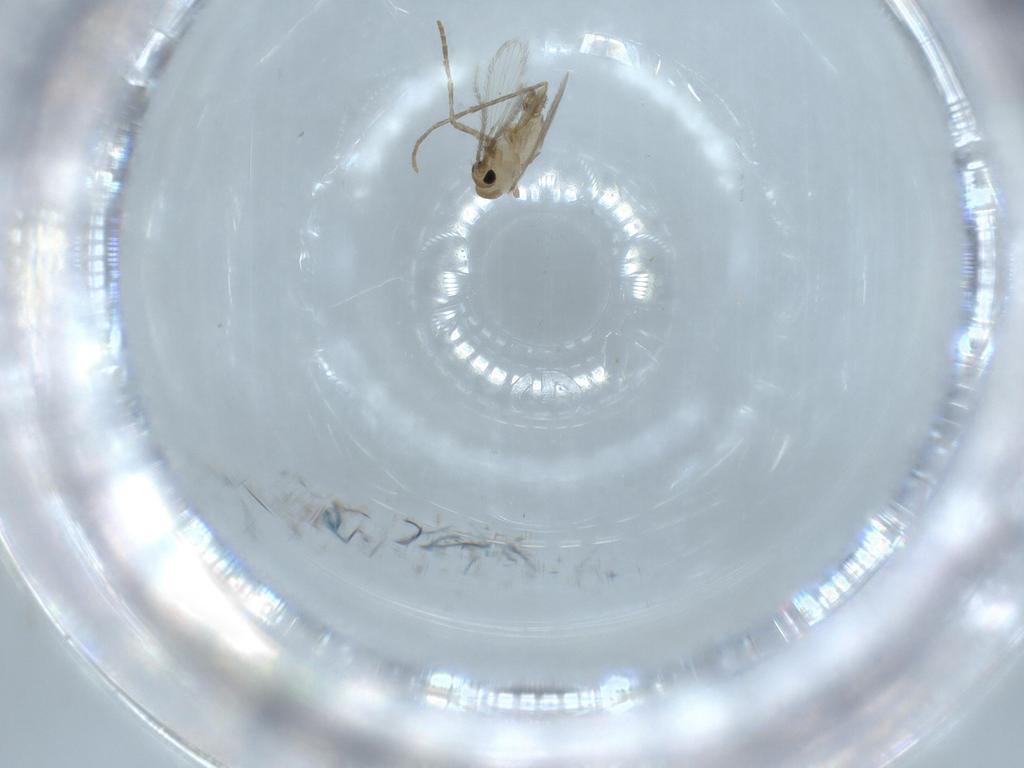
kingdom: Animalia
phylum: Arthropoda
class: Insecta
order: Diptera
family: Psychodidae
